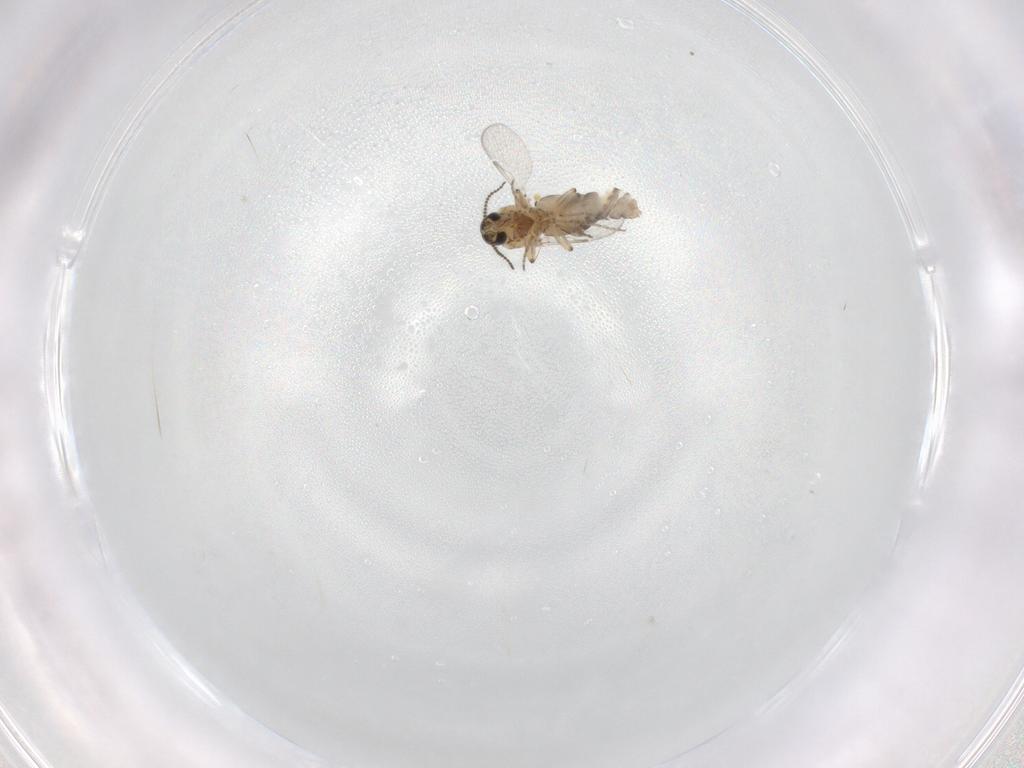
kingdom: Animalia
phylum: Arthropoda
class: Insecta
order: Diptera
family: Ceratopogonidae
